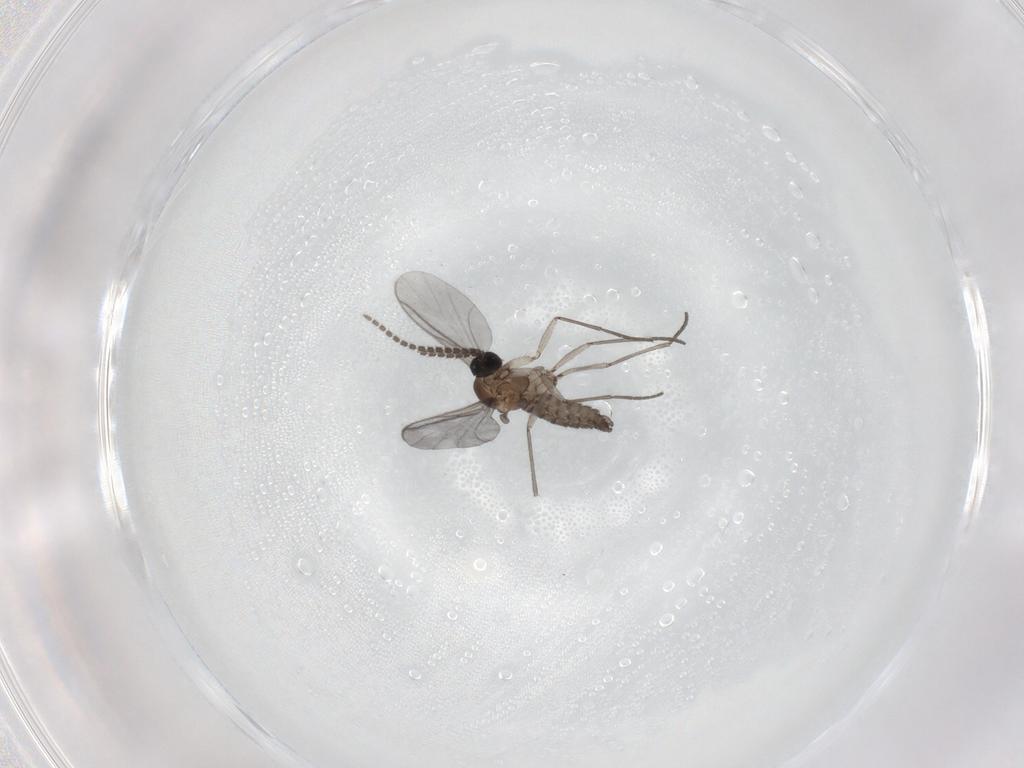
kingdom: Animalia
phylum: Arthropoda
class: Insecta
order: Diptera
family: Sciaridae
